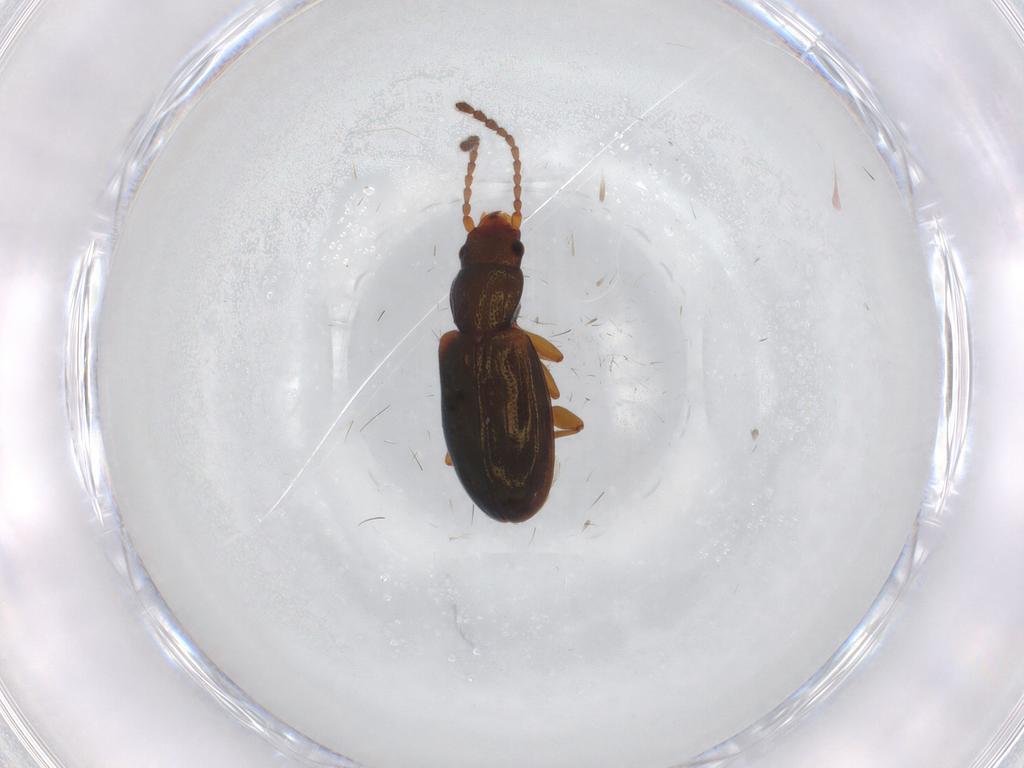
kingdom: Animalia
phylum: Arthropoda
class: Insecta
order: Coleoptera
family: Laemophloeidae
